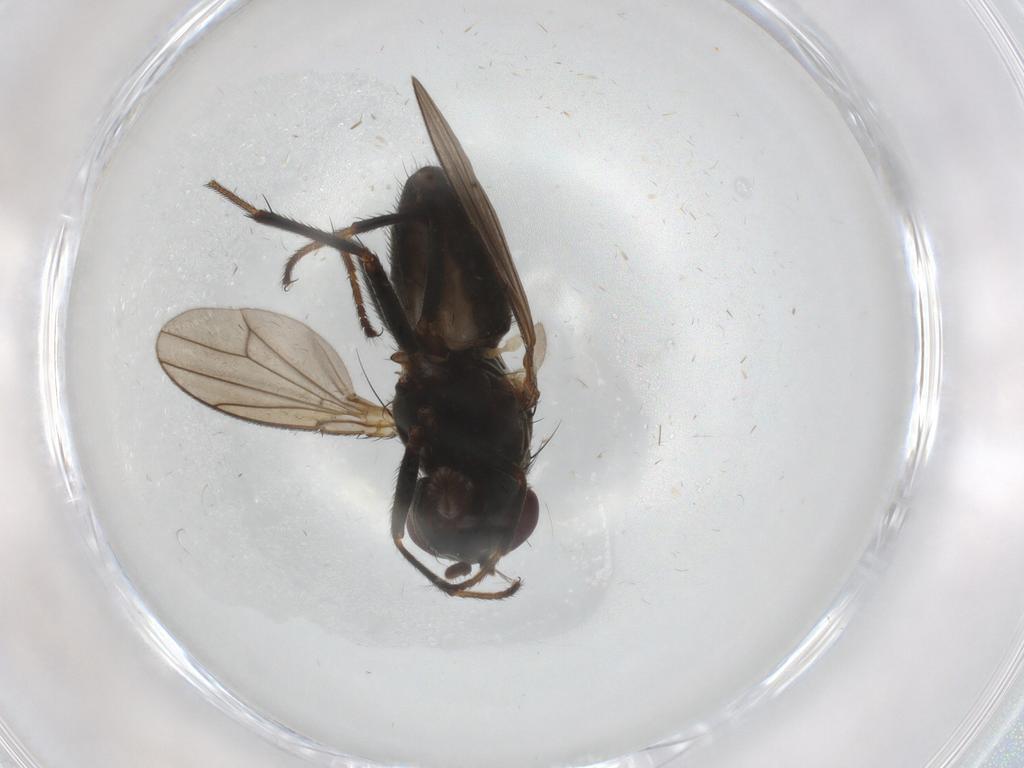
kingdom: Animalia
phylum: Arthropoda
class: Insecta
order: Diptera
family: Ephydridae
